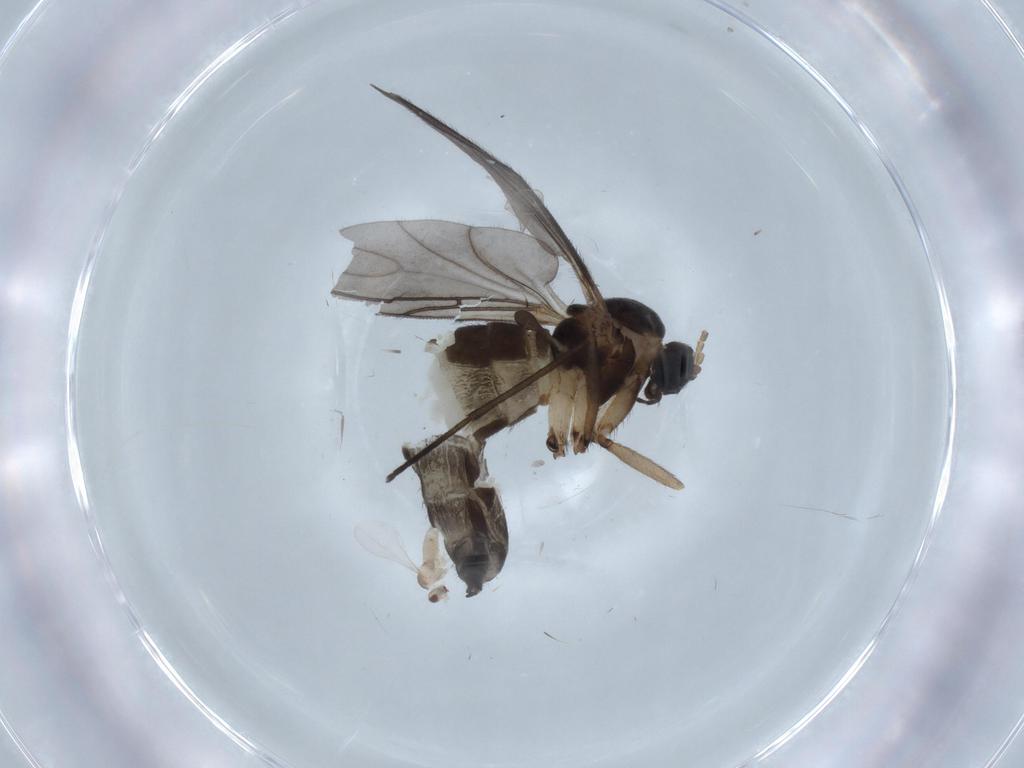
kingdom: Animalia
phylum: Arthropoda
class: Insecta
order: Diptera
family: Sciaridae
